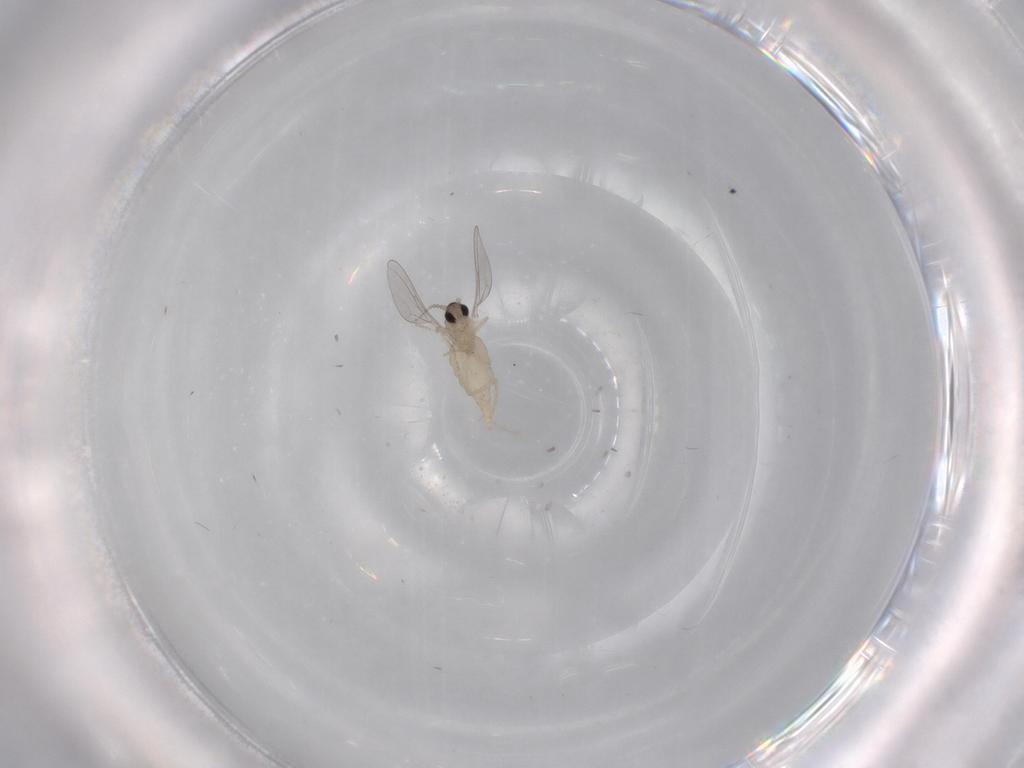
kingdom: Animalia
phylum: Arthropoda
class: Insecta
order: Diptera
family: Cecidomyiidae
